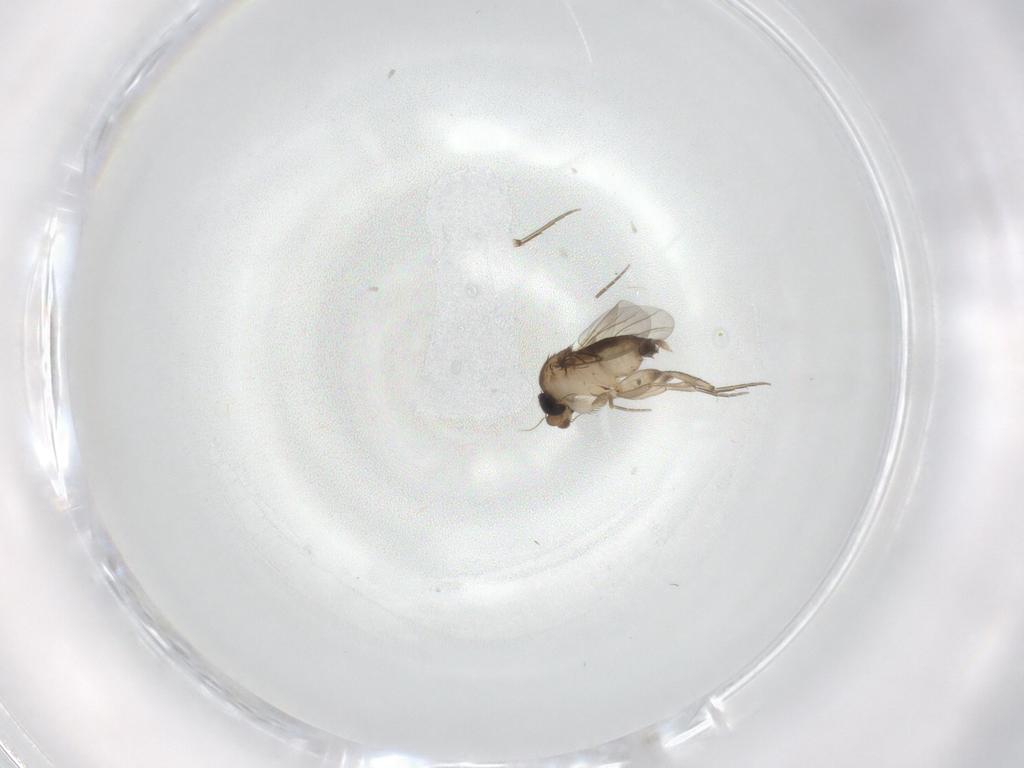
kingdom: Animalia
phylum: Arthropoda
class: Insecta
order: Diptera
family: Phoridae
